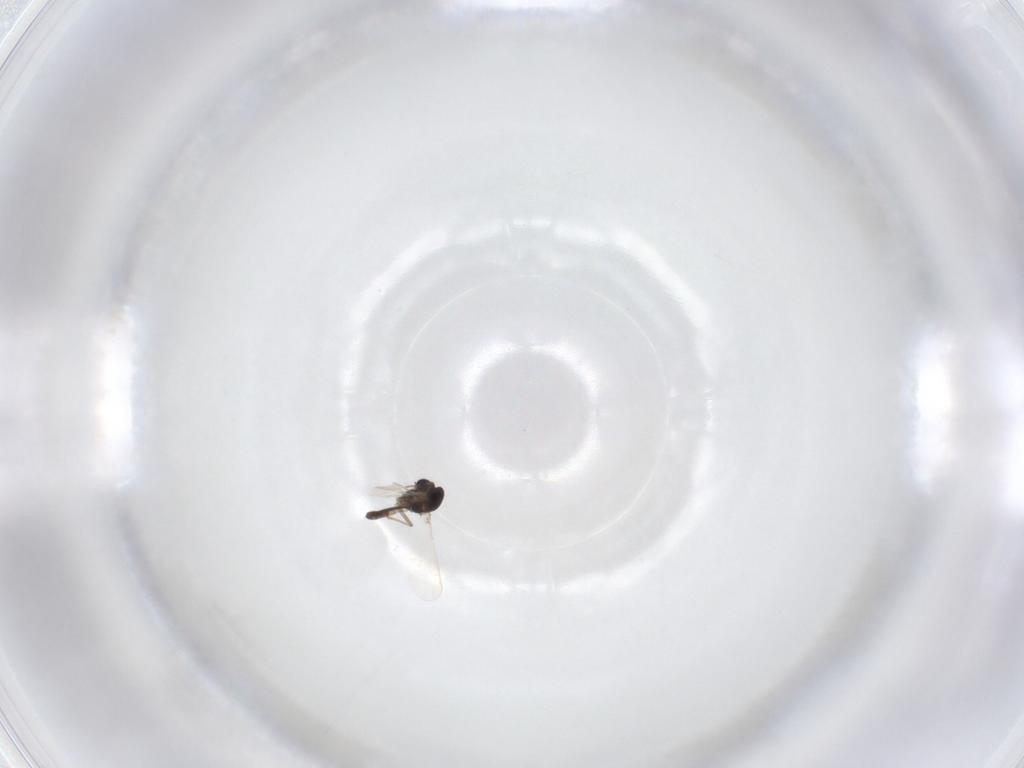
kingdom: Animalia
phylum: Arthropoda
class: Insecta
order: Diptera
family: Chironomidae
